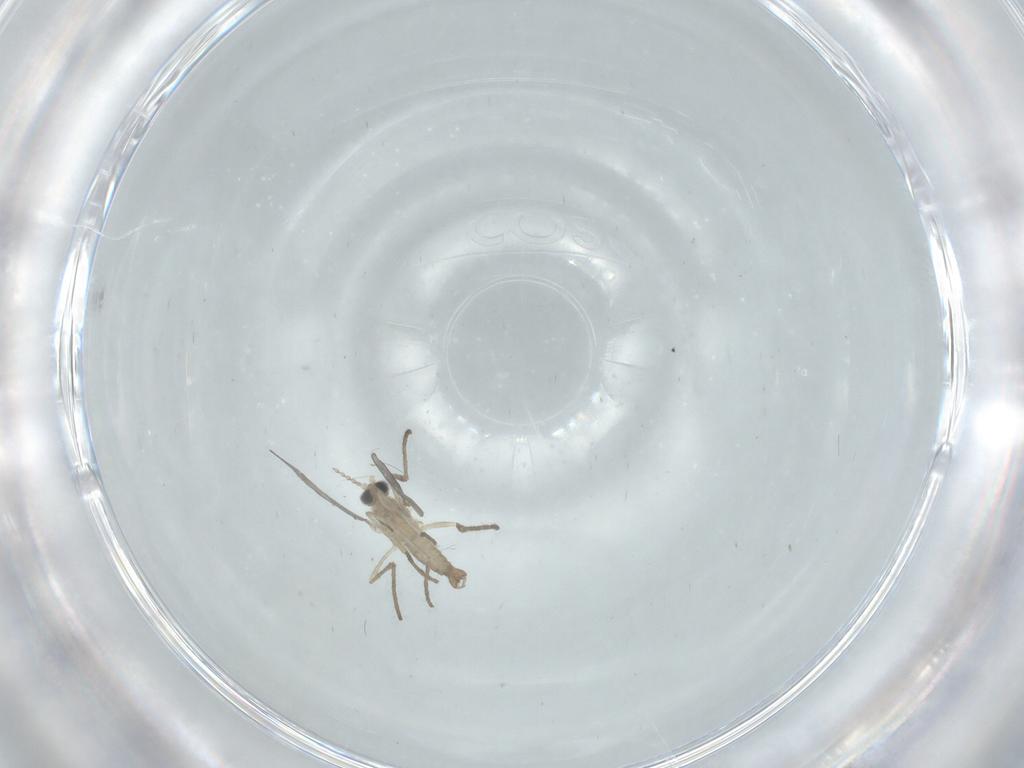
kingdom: Animalia
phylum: Arthropoda
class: Insecta
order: Diptera
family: Cecidomyiidae
